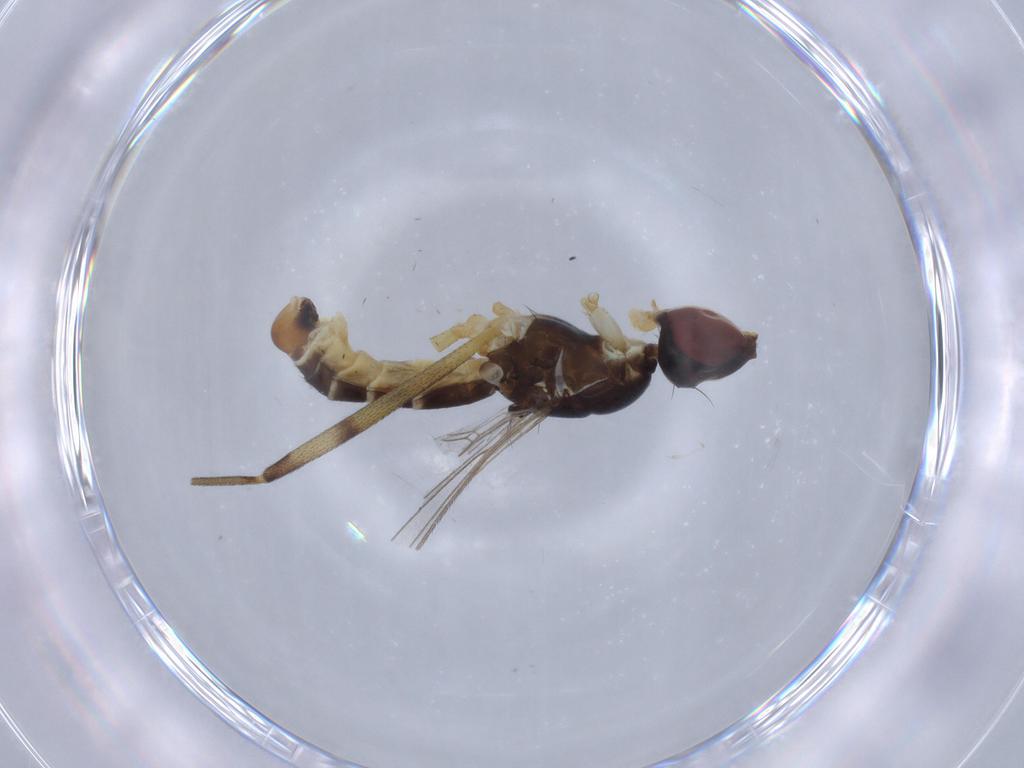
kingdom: Animalia
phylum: Arthropoda
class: Insecta
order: Diptera
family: Micropezidae
